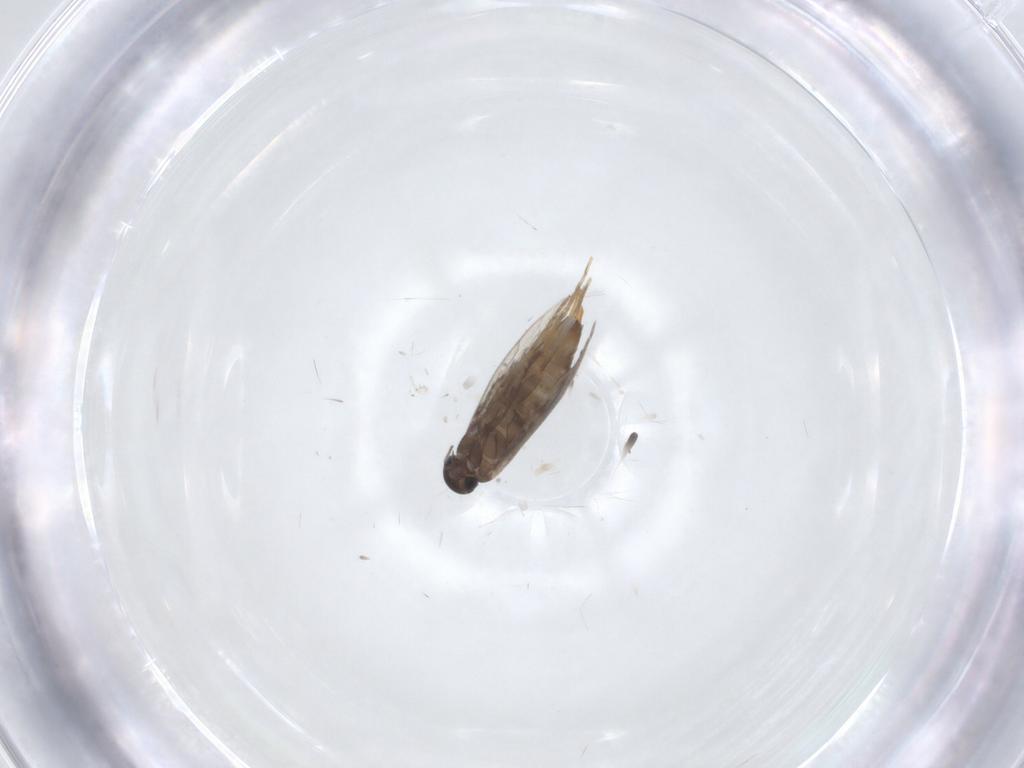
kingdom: Animalia
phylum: Arthropoda
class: Insecta
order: Lepidoptera
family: Heliozelidae
